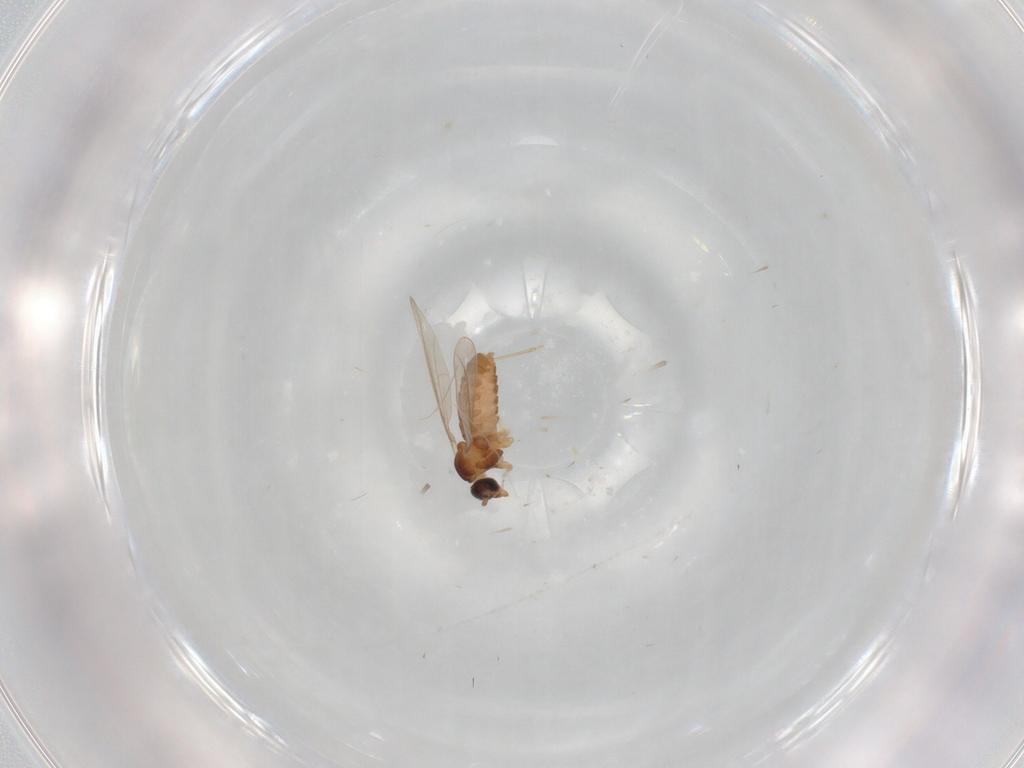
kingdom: Animalia
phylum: Arthropoda
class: Insecta
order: Diptera
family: Cecidomyiidae
